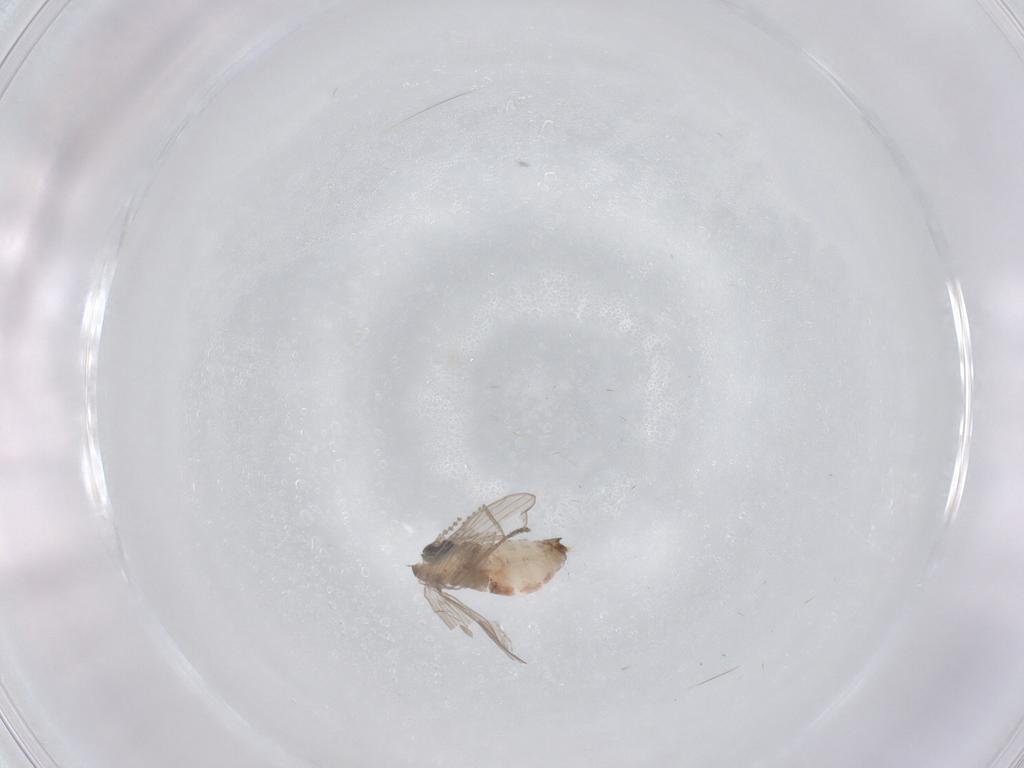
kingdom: Animalia
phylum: Arthropoda
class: Insecta
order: Diptera
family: Psychodidae
